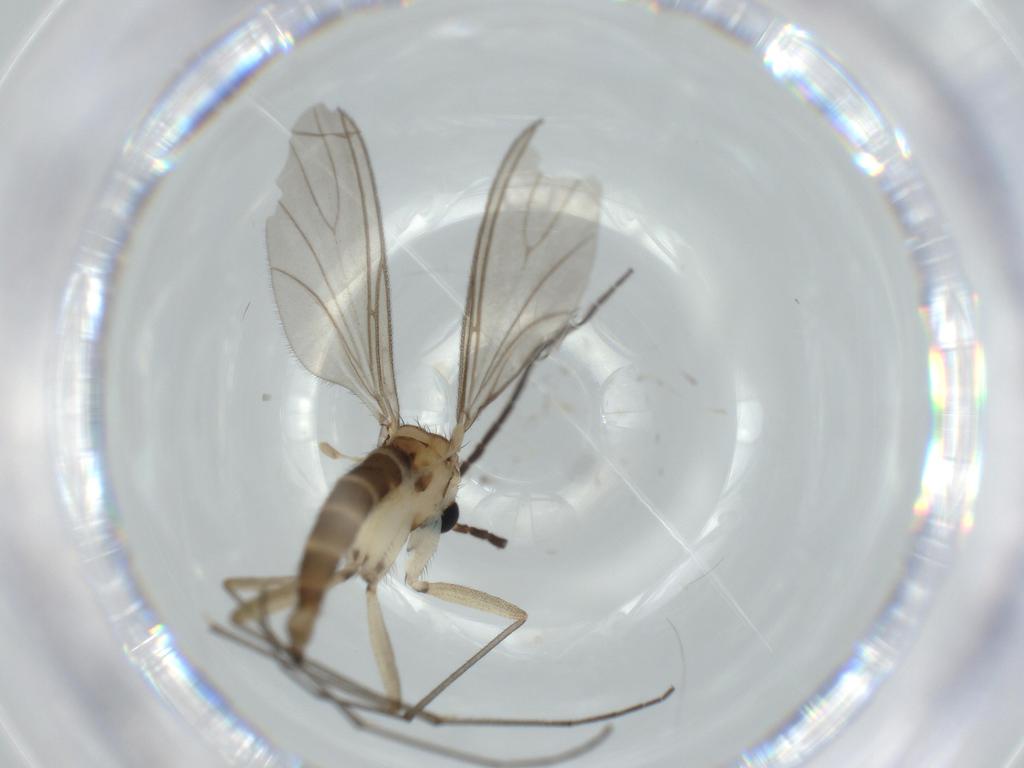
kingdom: Animalia
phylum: Arthropoda
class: Insecta
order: Diptera
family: Sciaridae
